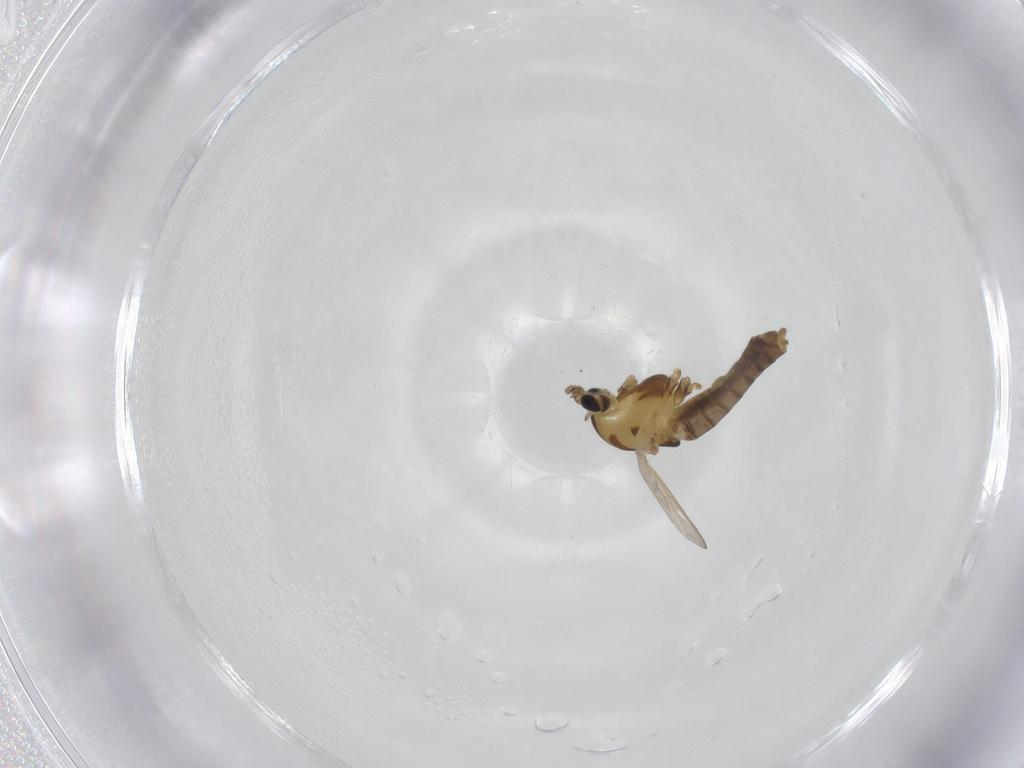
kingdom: Animalia
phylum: Arthropoda
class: Insecta
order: Diptera
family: Chironomidae
